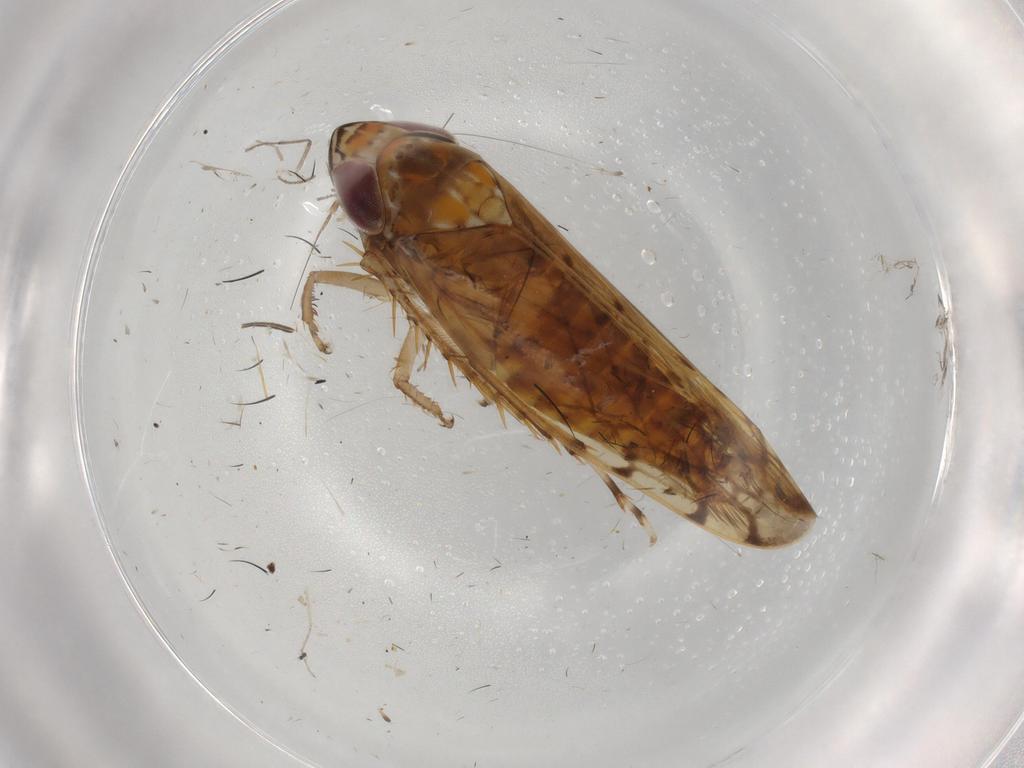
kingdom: Animalia
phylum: Arthropoda
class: Insecta
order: Hemiptera
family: Cicadellidae
